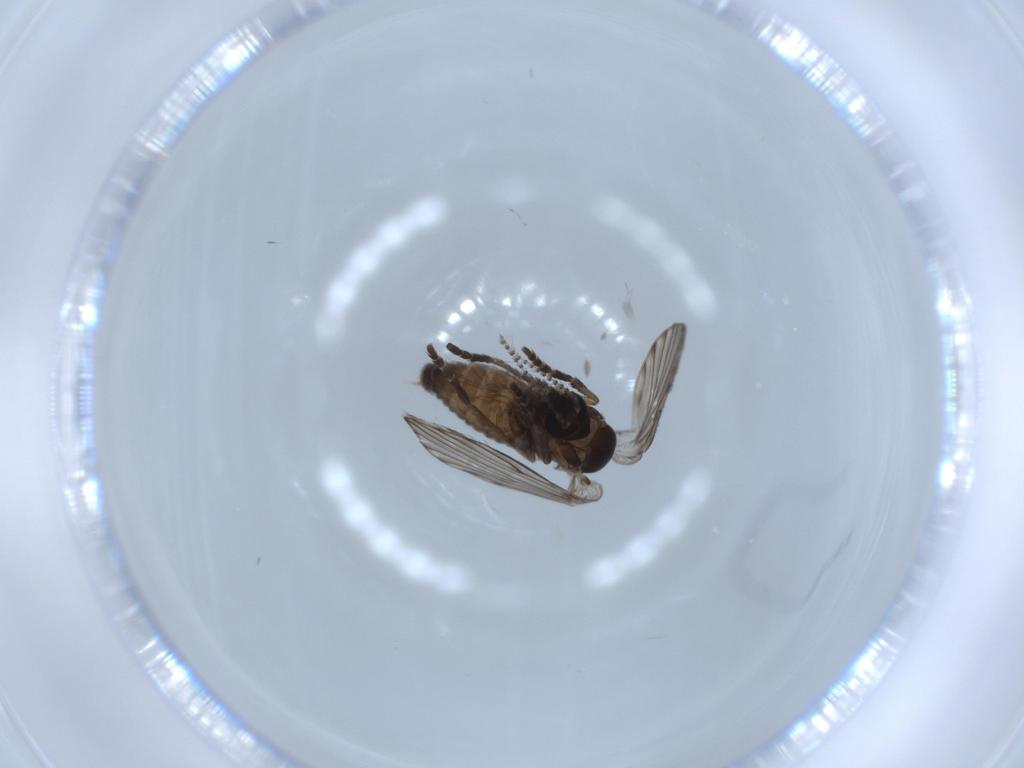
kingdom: Animalia
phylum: Arthropoda
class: Insecta
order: Diptera
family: Psychodidae
